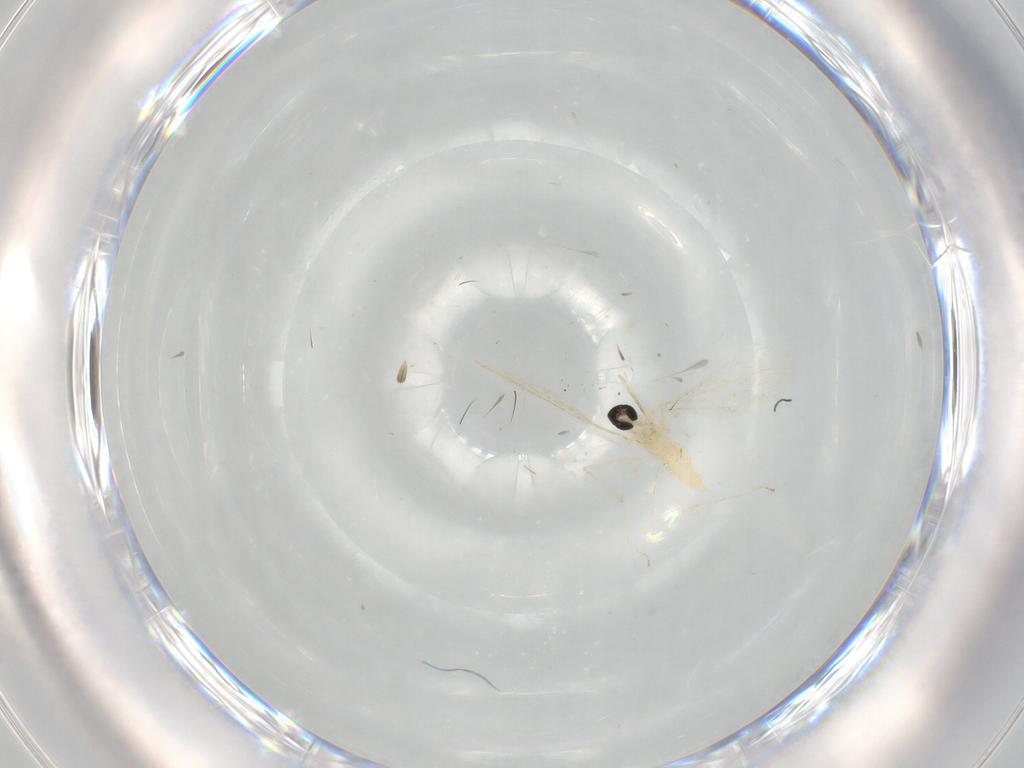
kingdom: Animalia
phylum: Arthropoda
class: Insecta
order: Diptera
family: Cecidomyiidae
